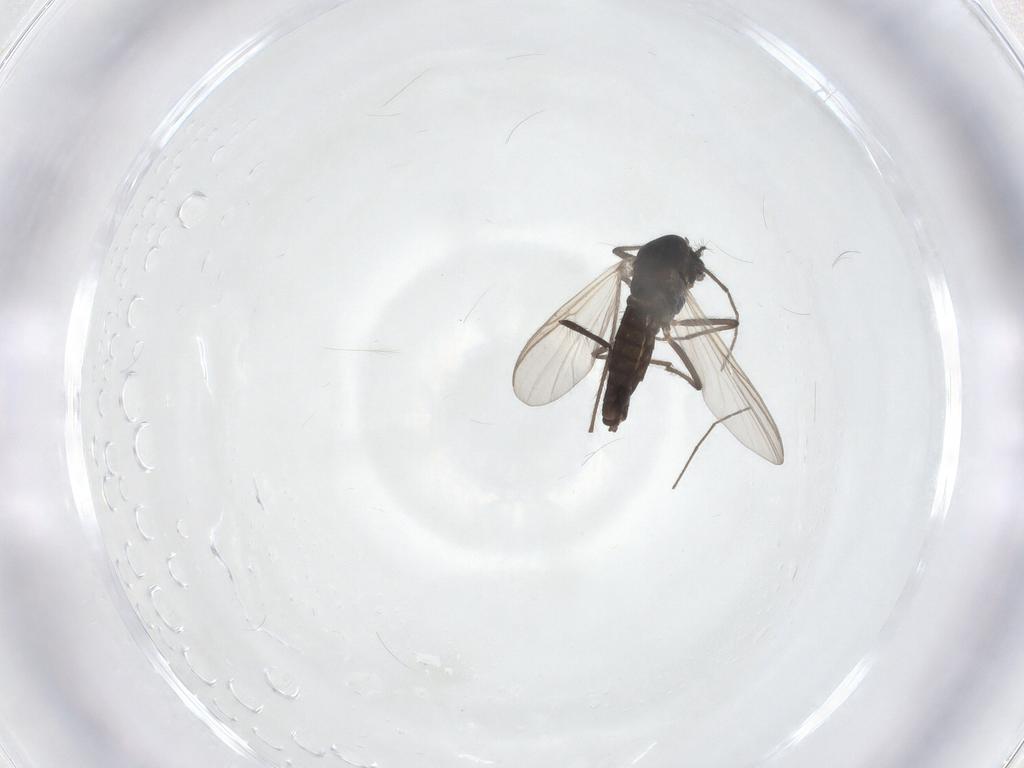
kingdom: Animalia
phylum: Arthropoda
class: Insecta
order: Diptera
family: Chironomidae
